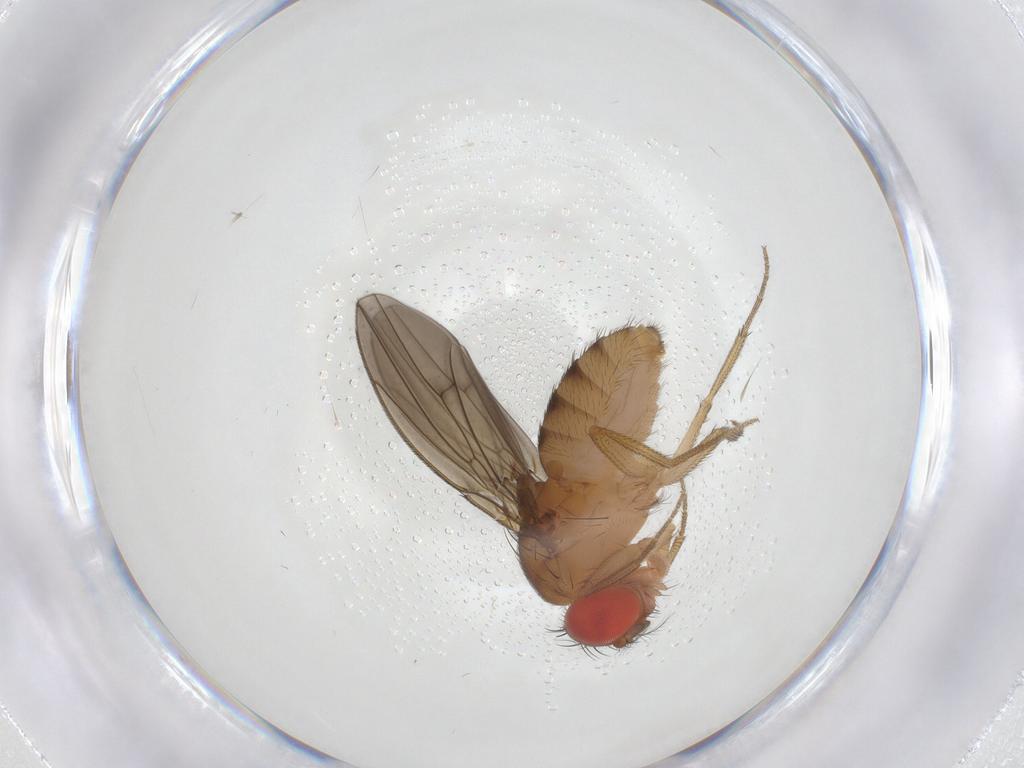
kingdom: Animalia
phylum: Arthropoda
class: Insecta
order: Diptera
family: Drosophilidae
